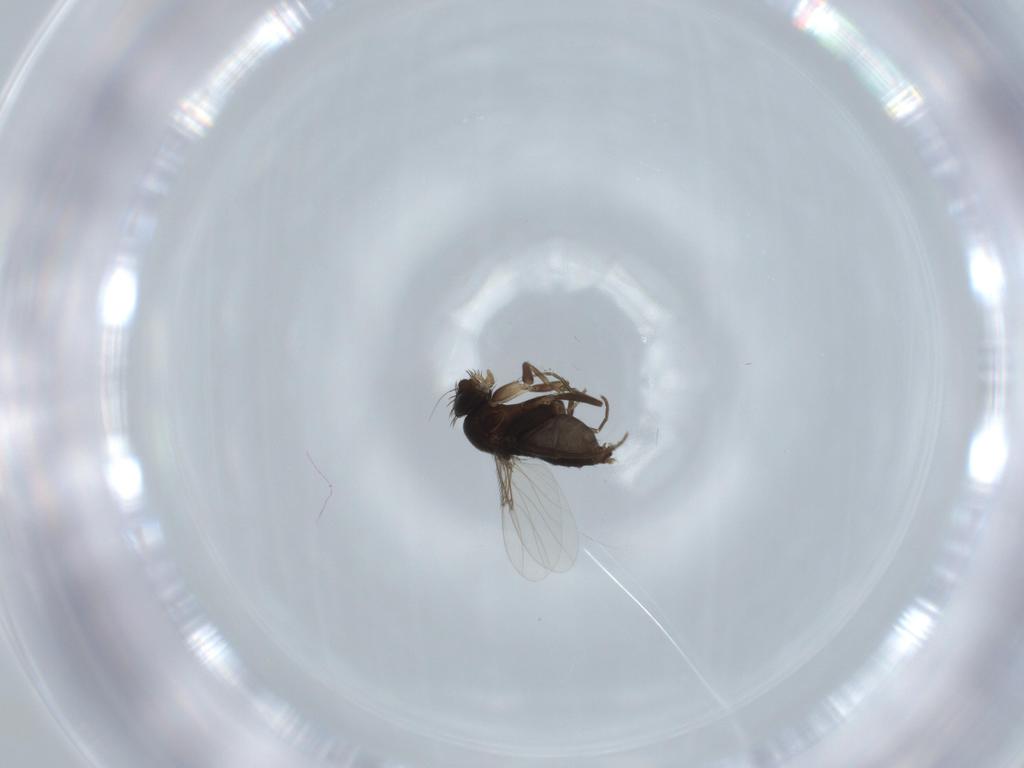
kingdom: Animalia
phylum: Arthropoda
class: Insecta
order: Diptera
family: Phoridae
